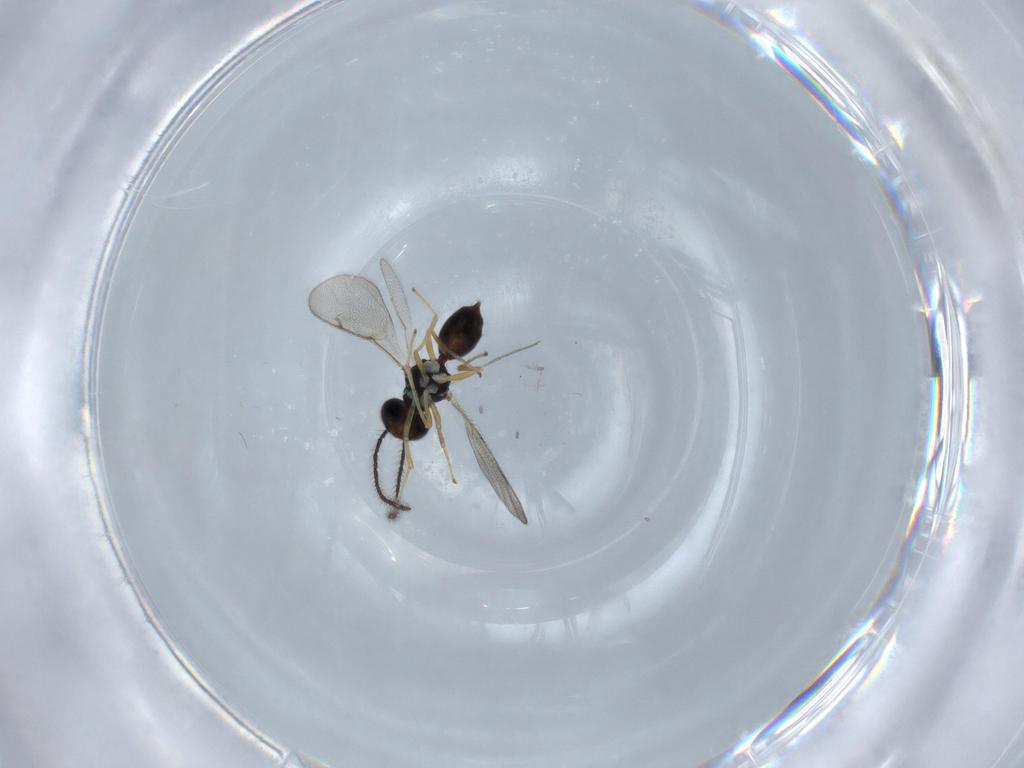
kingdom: Animalia
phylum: Arthropoda
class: Insecta
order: Hymenoptera
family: Diparidae
